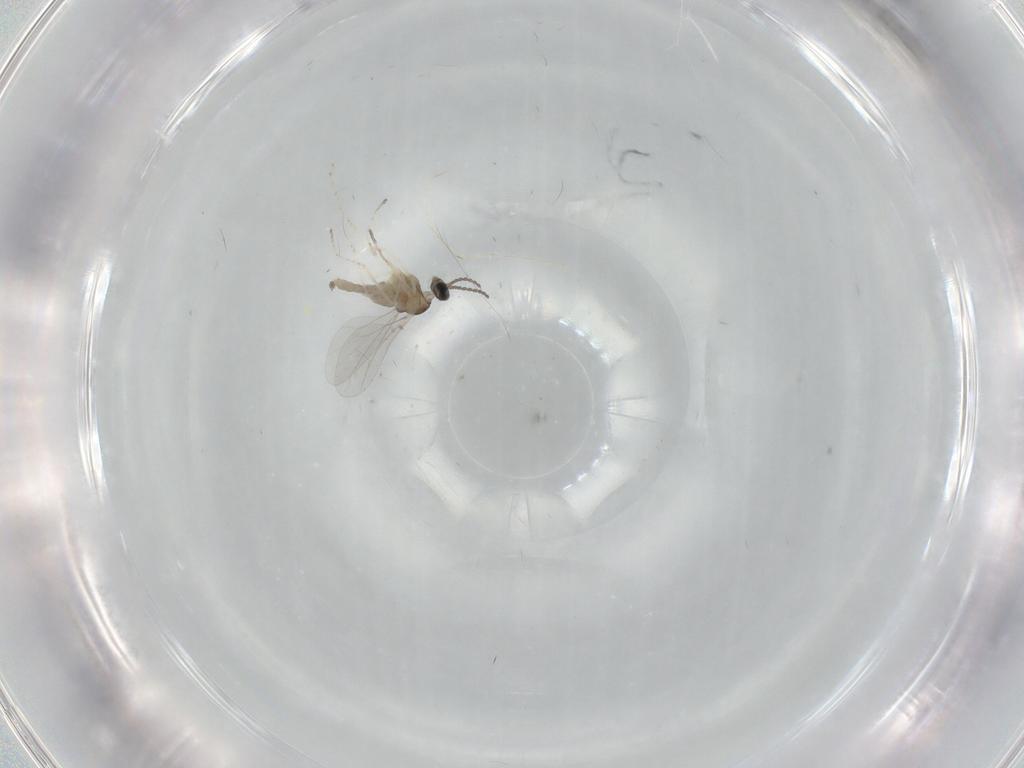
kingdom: Animalia
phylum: Arthropoda
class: Insecta
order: Diptera
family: Cecidomyiidae
